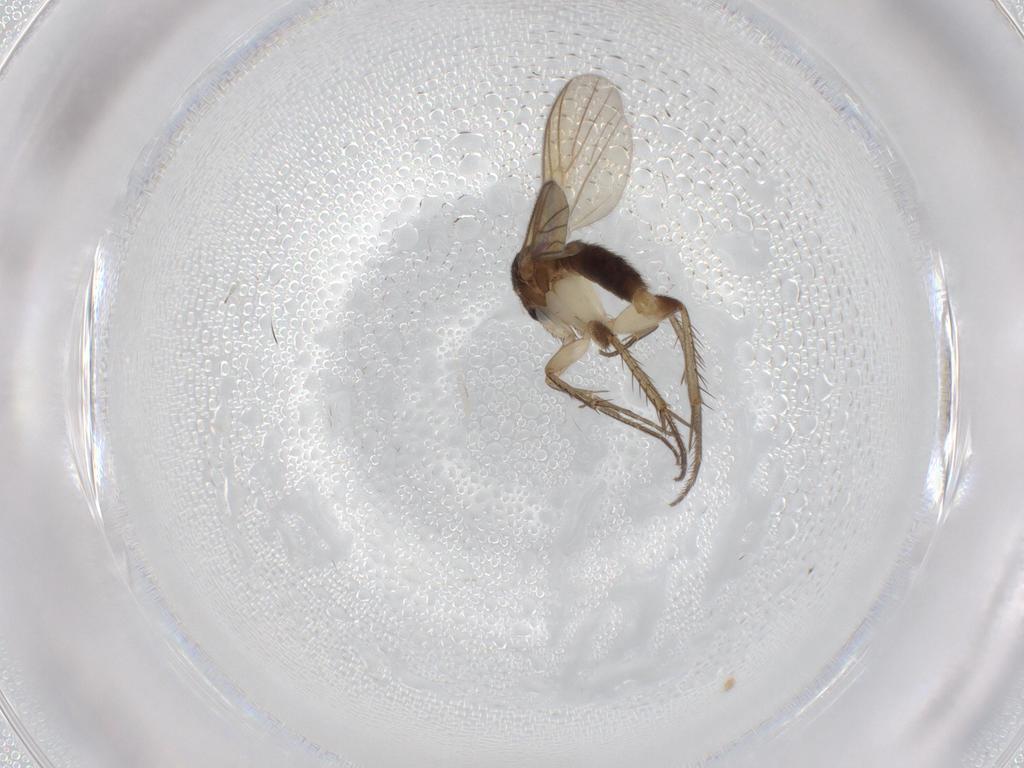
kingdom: Animalia
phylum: Arthropoda
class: Insecta
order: Diptera
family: Chironomidae
